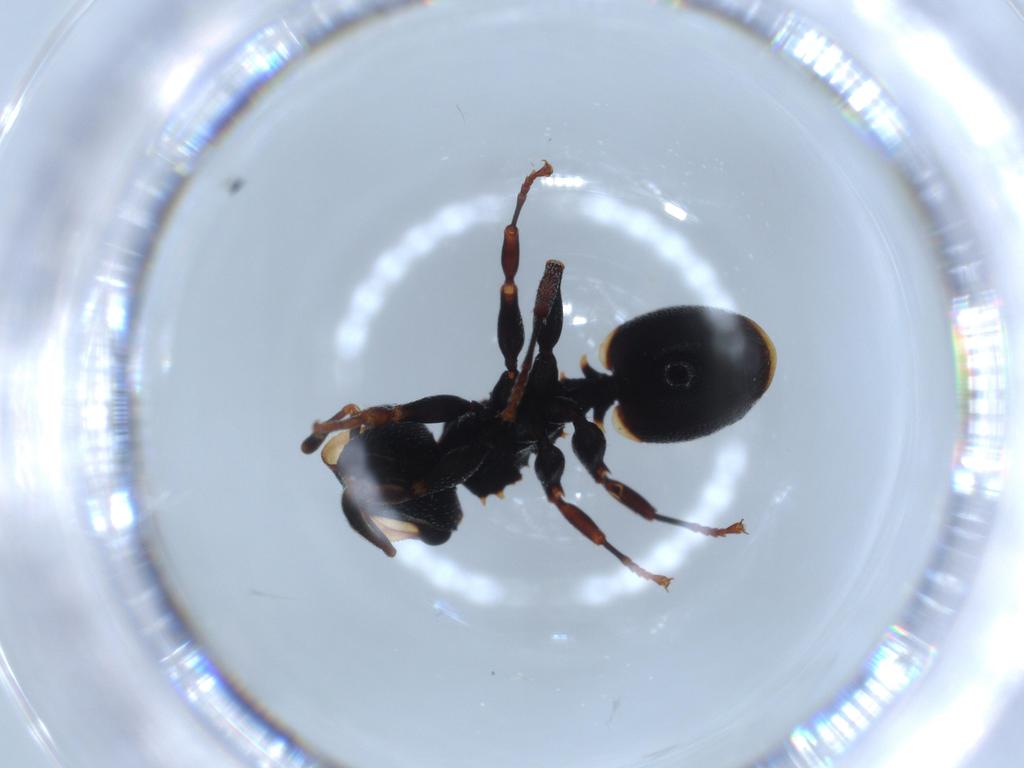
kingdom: Animalia
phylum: Arthropoda
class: Insecta
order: Hymenoptera
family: Formicidae
